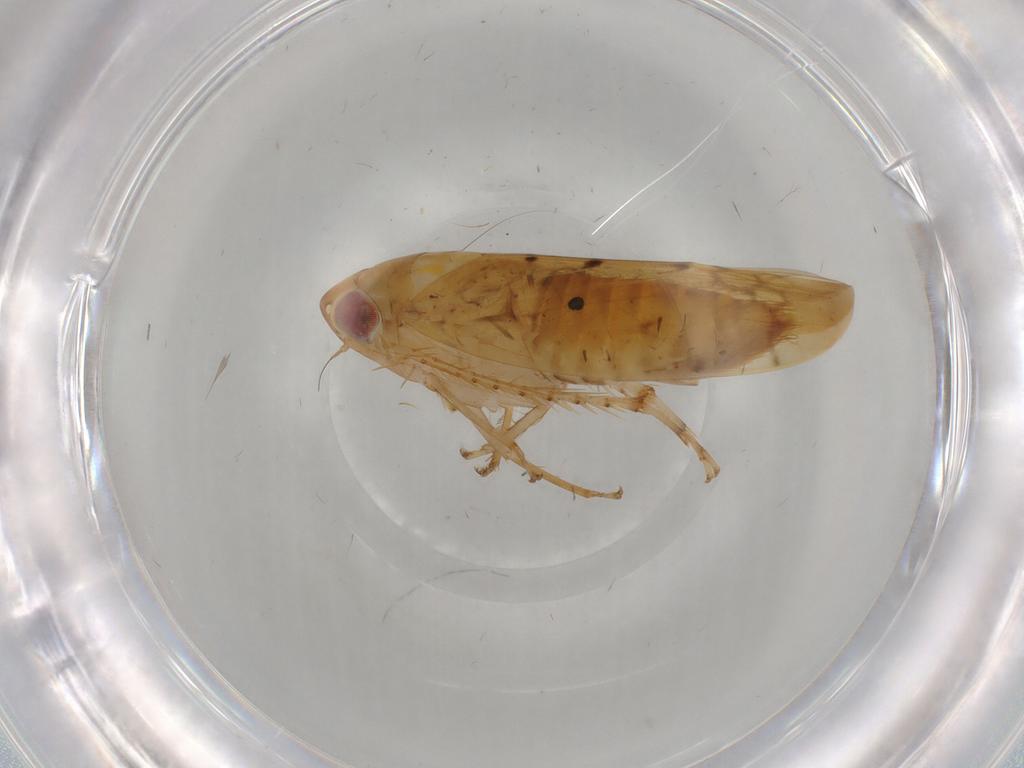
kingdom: Animalia
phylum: Arthropoda
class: Insecta
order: Hemiptera
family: Cicadellidae
